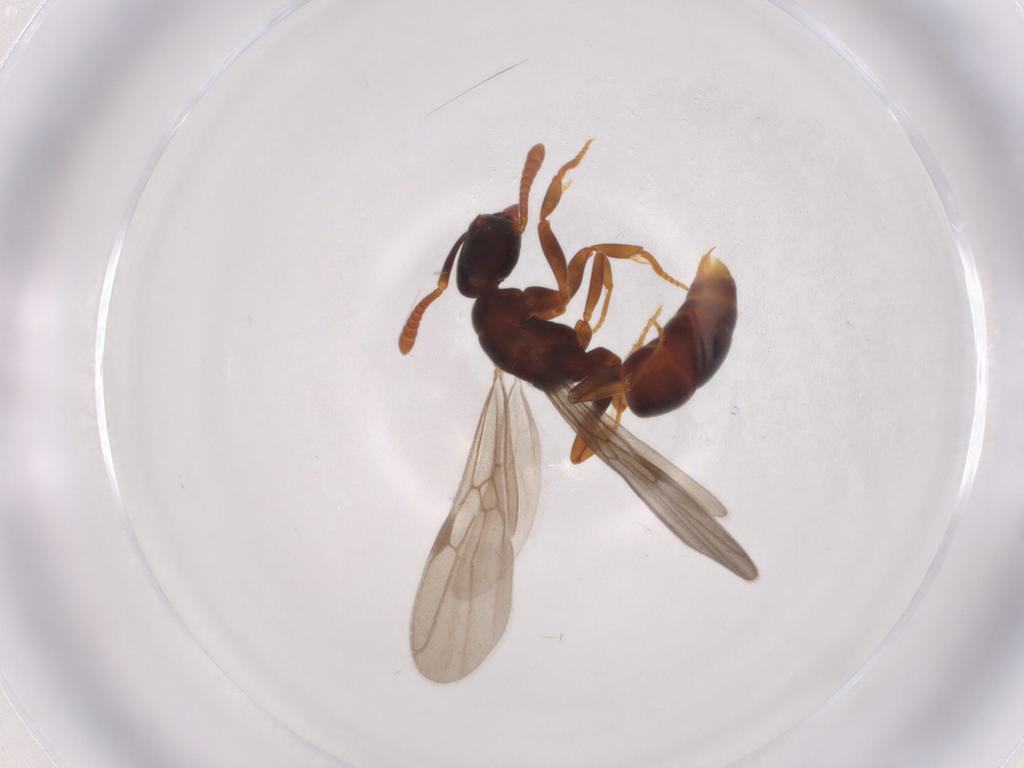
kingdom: Animalia
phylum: Arthropoda
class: Insecta
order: Hymenoptera
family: Formicidae
